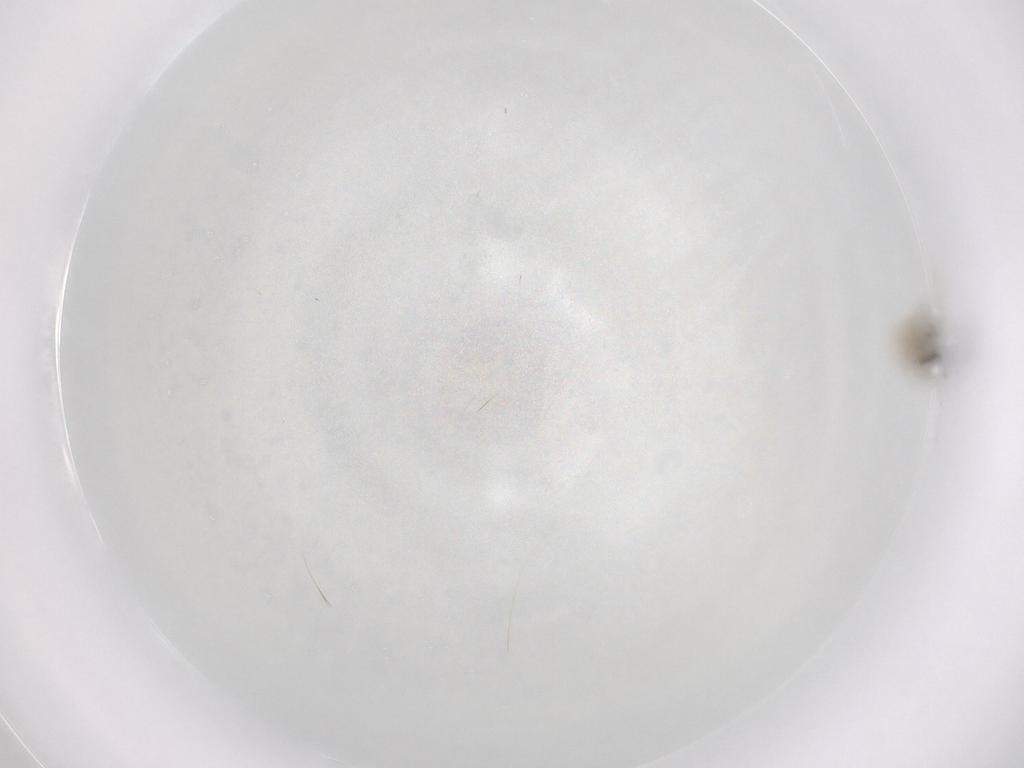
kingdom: Animalia
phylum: Arthropoda
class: Insecta
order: Diptera
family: Cecidomyiidae
